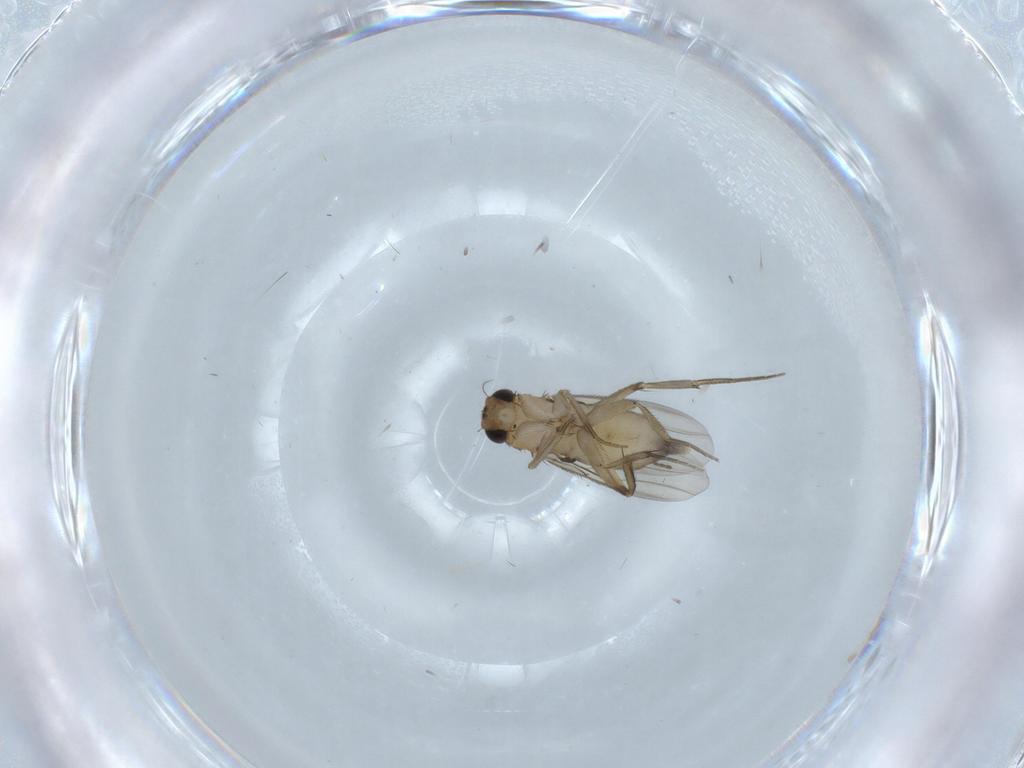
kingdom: Animalia
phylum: Arthropoda
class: Insecta
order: Diptera
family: Phoridae
